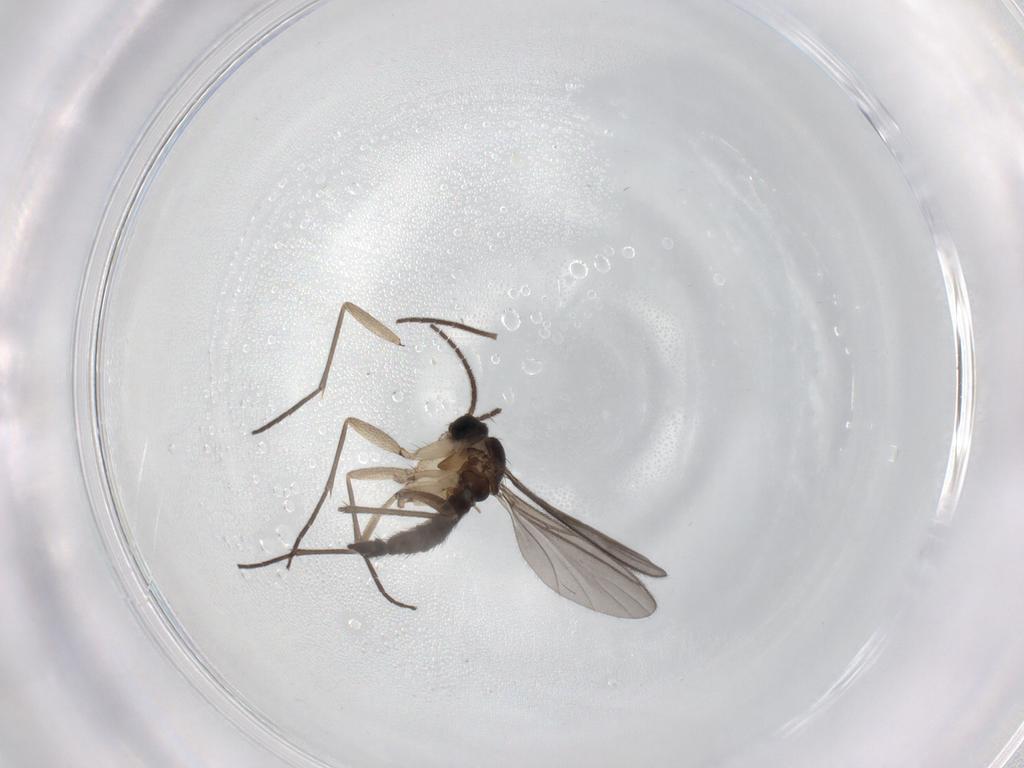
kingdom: Animalia
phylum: Arthropoda
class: Insecta
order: Diptera
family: Sciaridae
